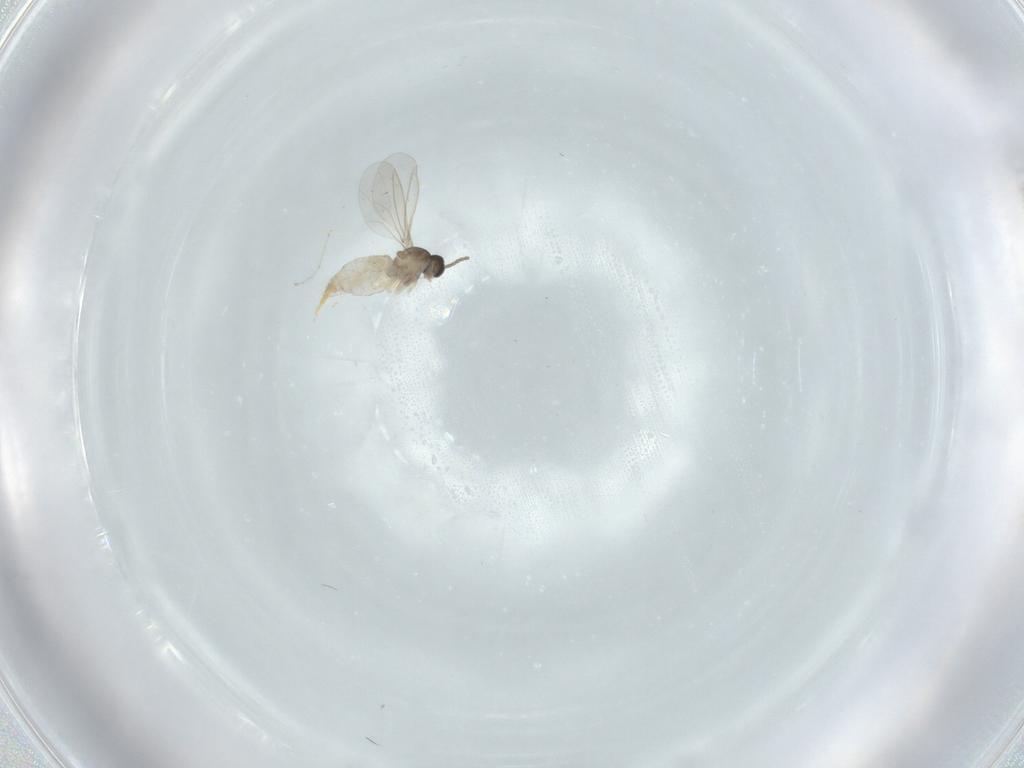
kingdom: Animalia
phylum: Arthropoda
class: Insecta
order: Diptera
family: Cecidomyiidae
